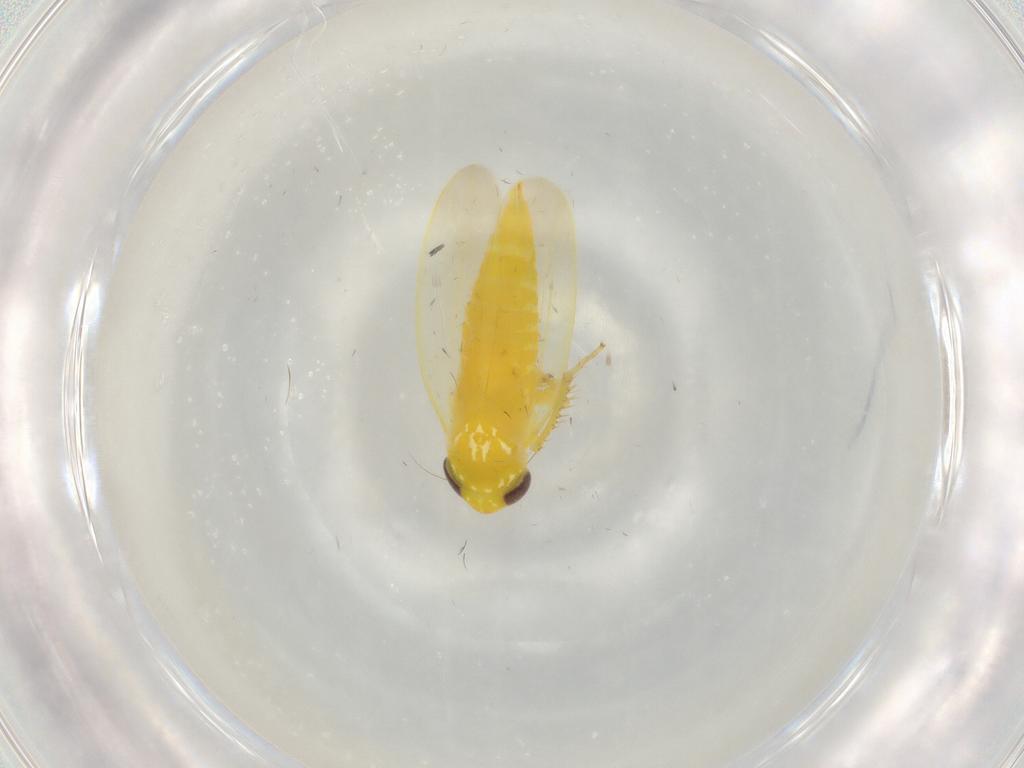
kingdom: Animalia
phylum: Arthropoda
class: Insecta
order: Hemiptera
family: Cicadellidae
